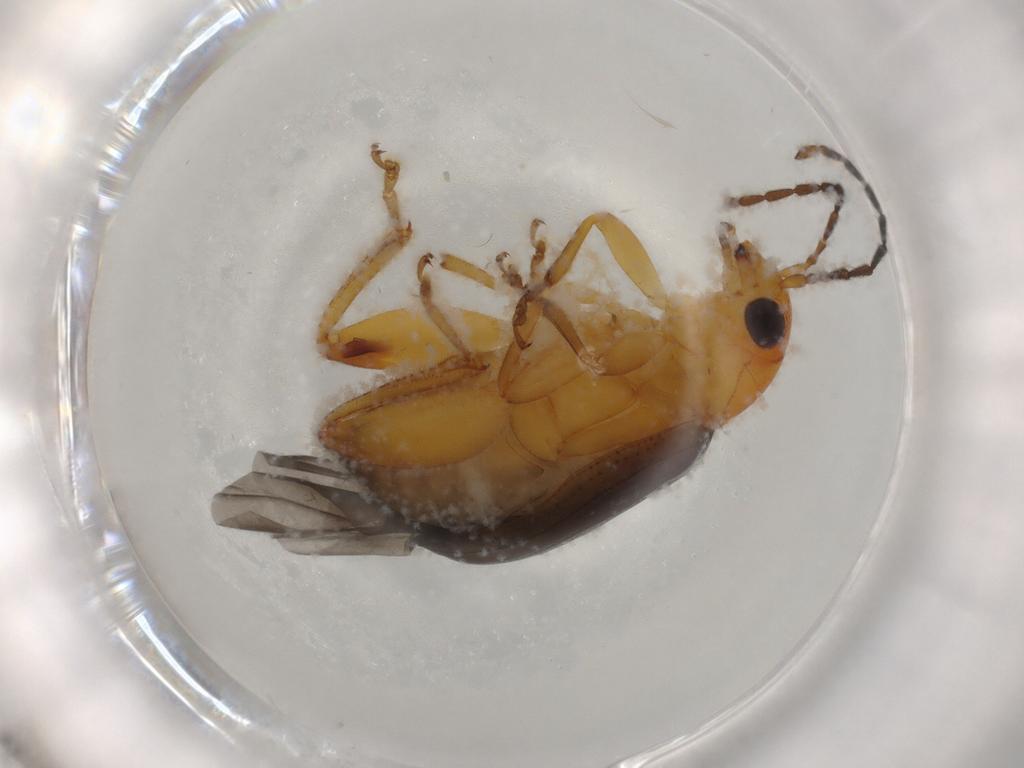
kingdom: Animalia
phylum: Arthropoda
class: Insecta
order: Coleoptera
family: Chrysomelidae
